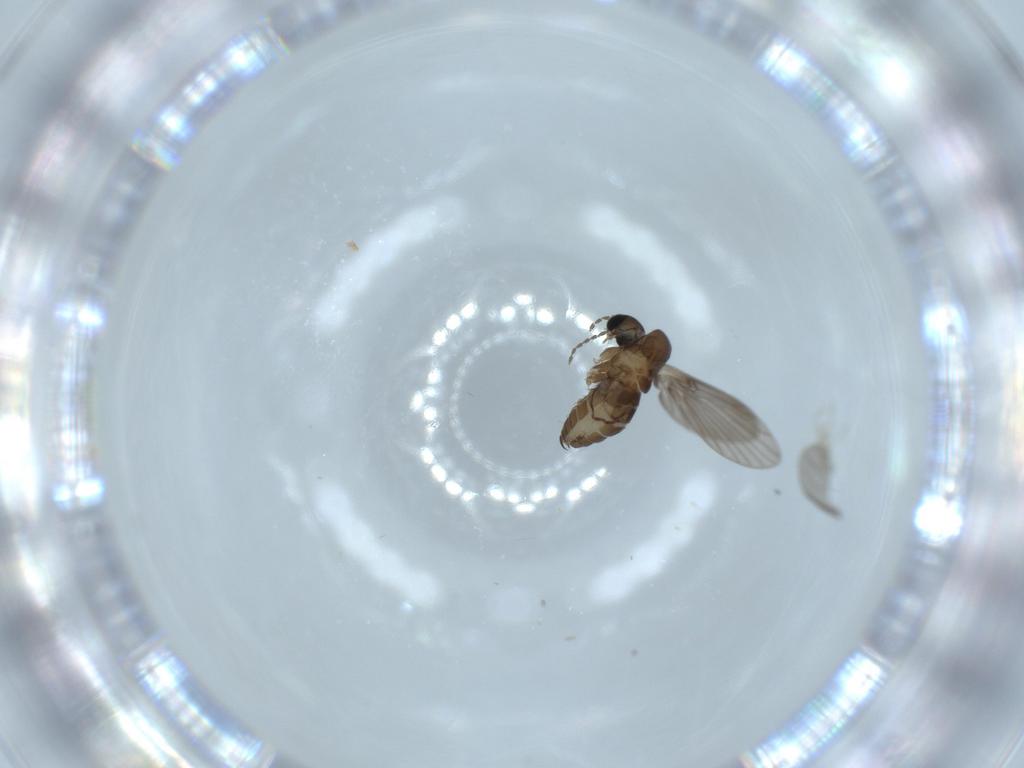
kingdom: Animalia
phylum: Arthropoda
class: Insecta
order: Diptera
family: Psychodidae
